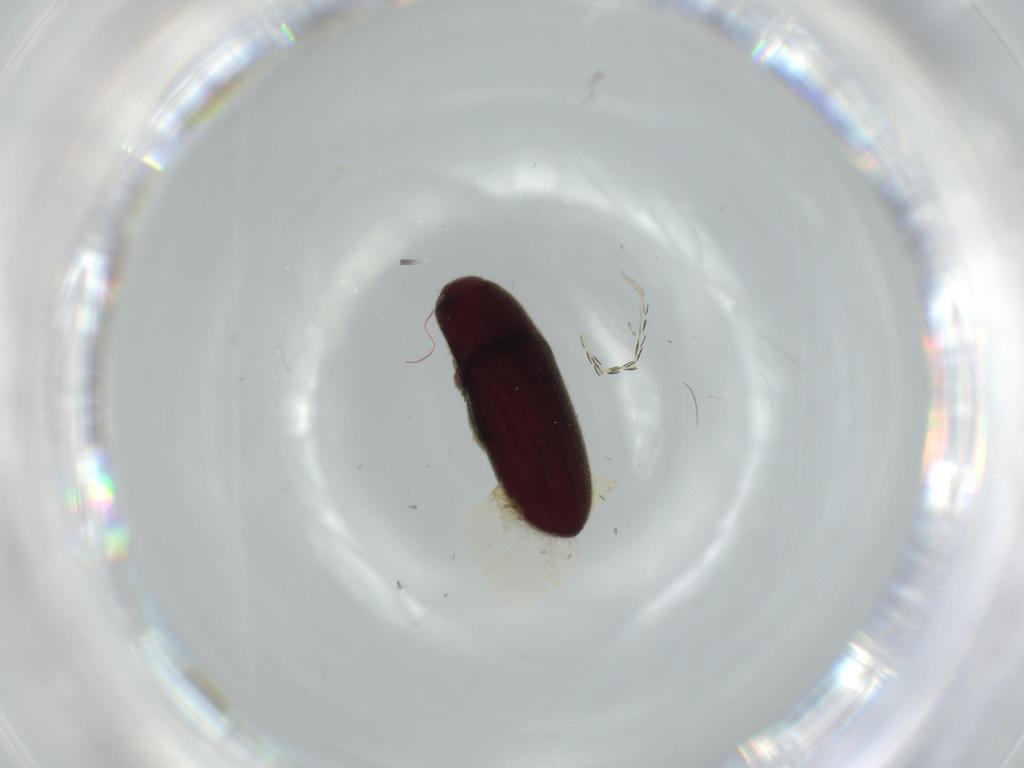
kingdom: Animalia
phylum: Arthropoda
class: Insecta
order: Coleoptera
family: Throscidae
